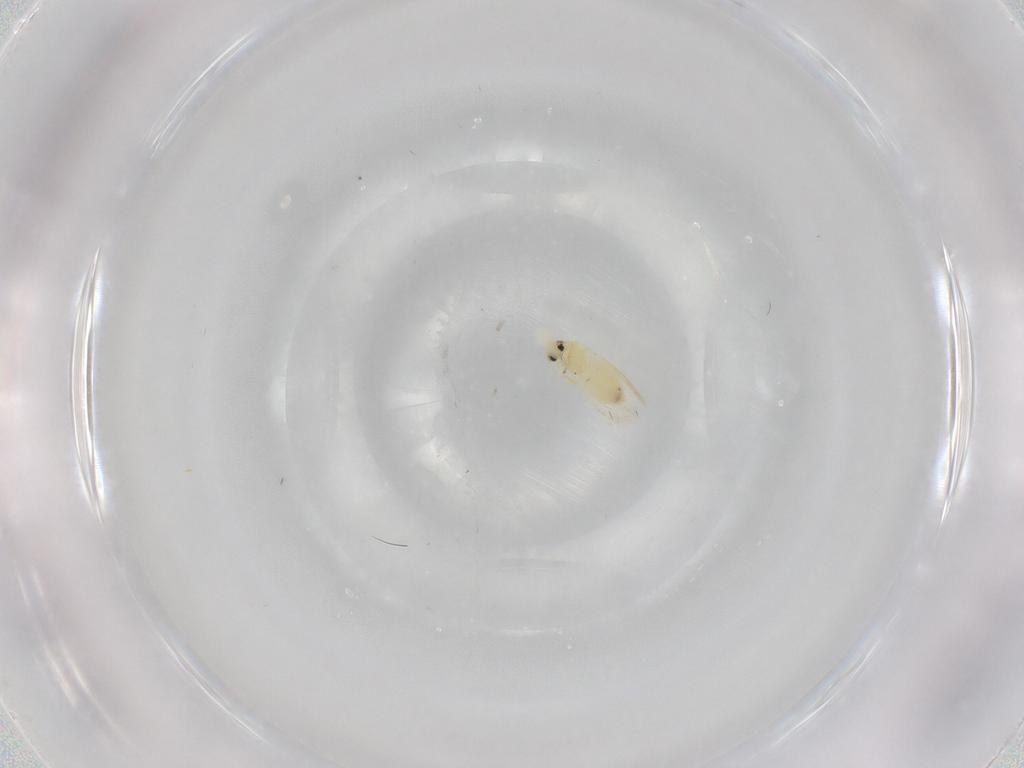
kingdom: Animalia
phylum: Arthropoda
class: Insecta
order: Hemiptera
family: Aleyrodidae
